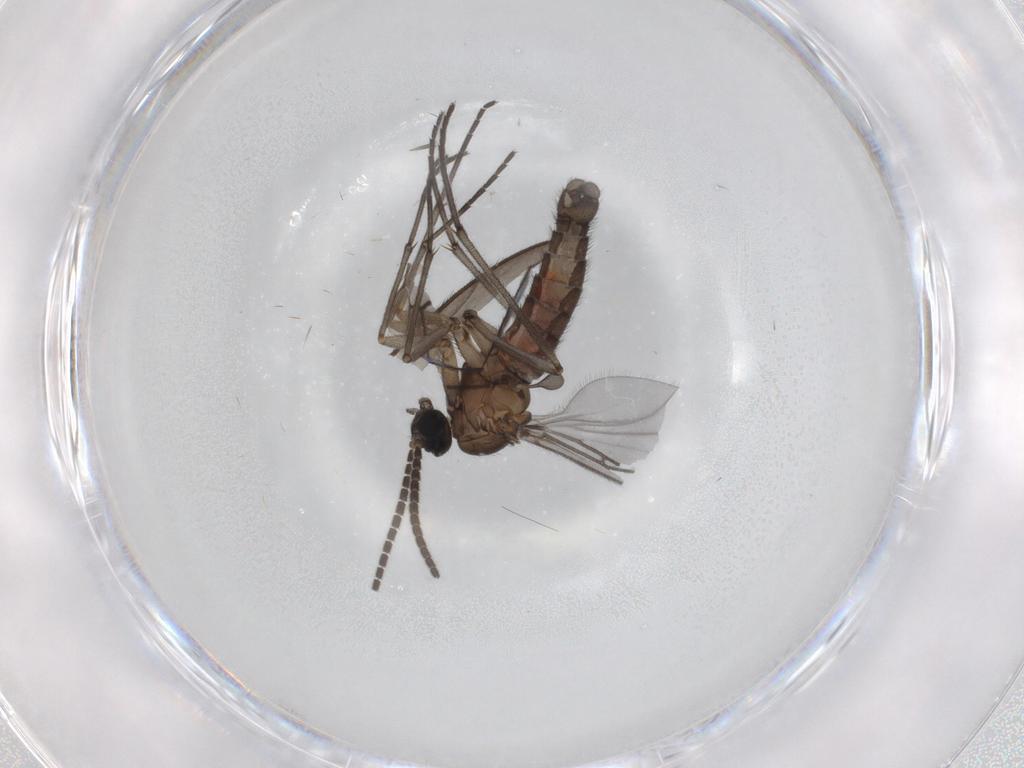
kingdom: Animalia
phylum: Arthropoda
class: Insecta
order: Diptera
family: Sciaridae
